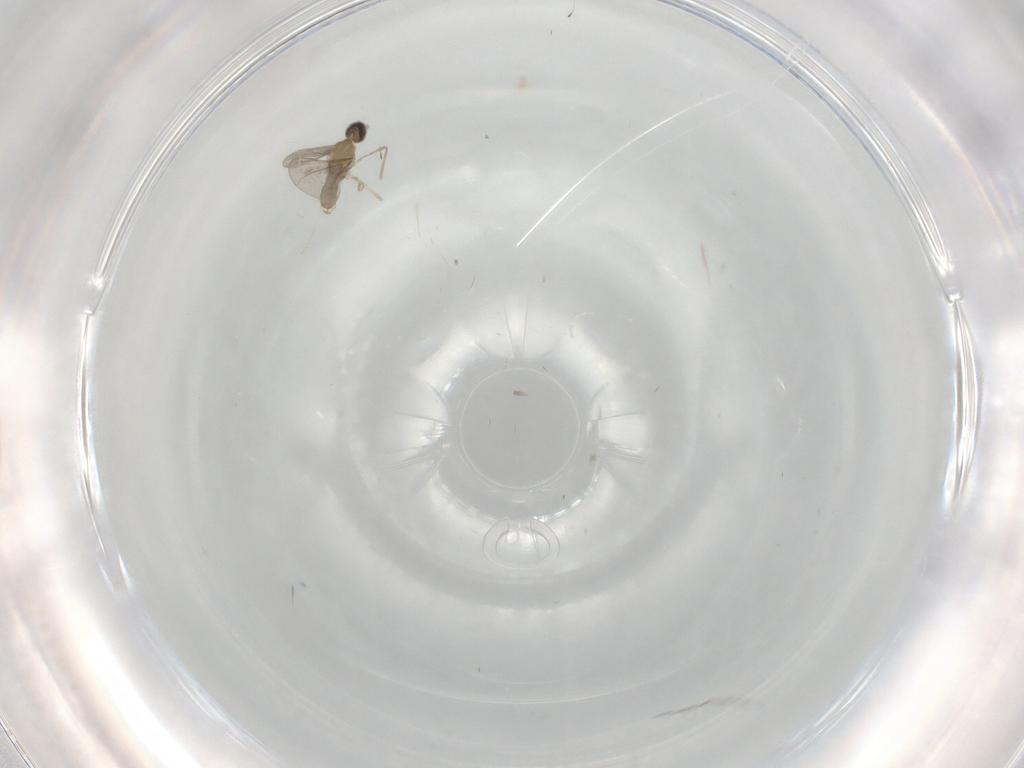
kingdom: Animalia
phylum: Arthropoda
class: Insecta
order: Diptera
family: Cecidomyiidae
